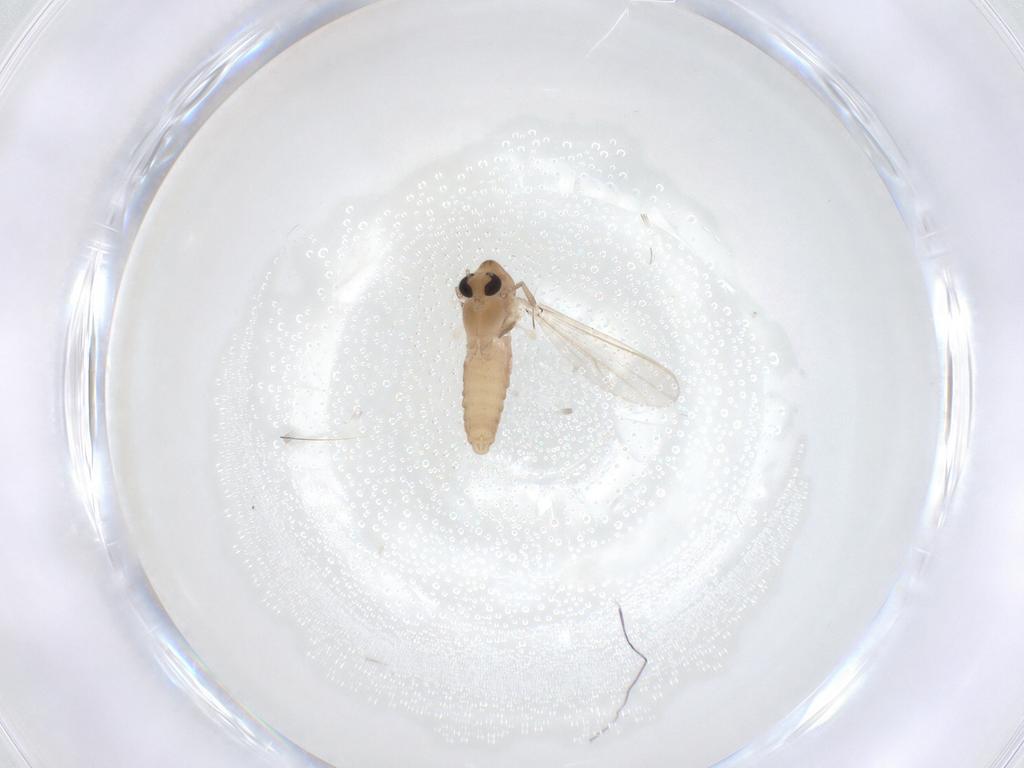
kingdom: Animalia
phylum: Arthropoda
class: Insecta
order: Diptera
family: Chironomidae
